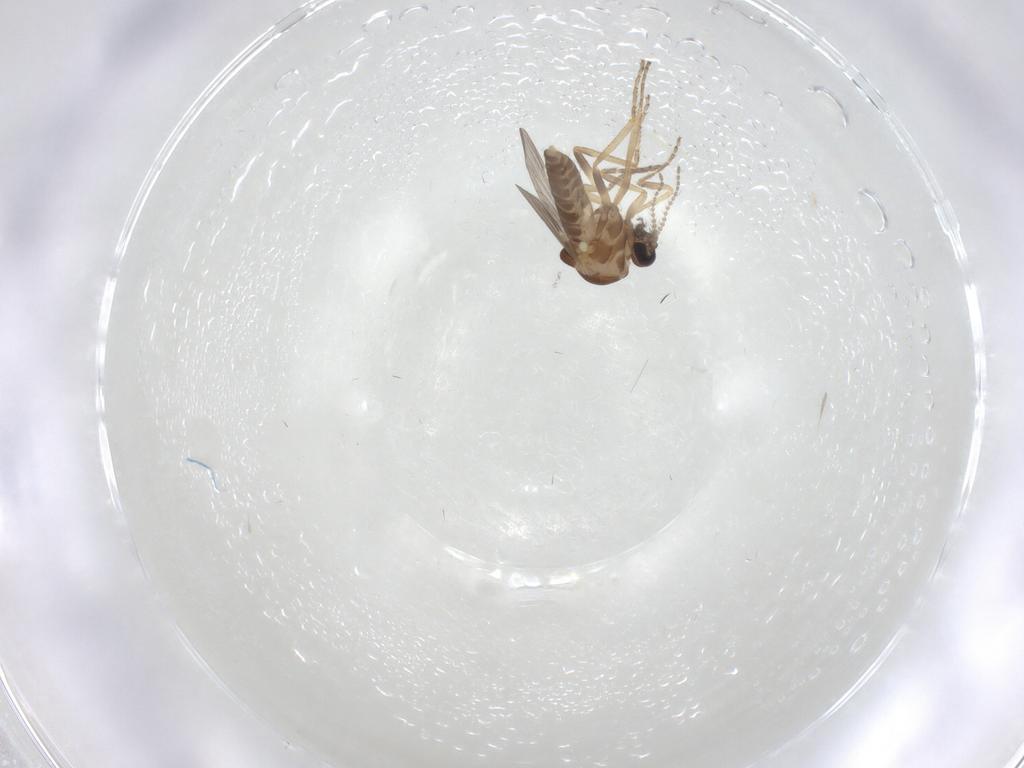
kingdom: Animalia
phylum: Arthropoda
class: Insecta
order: Diptera
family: Ceratopogonidae
